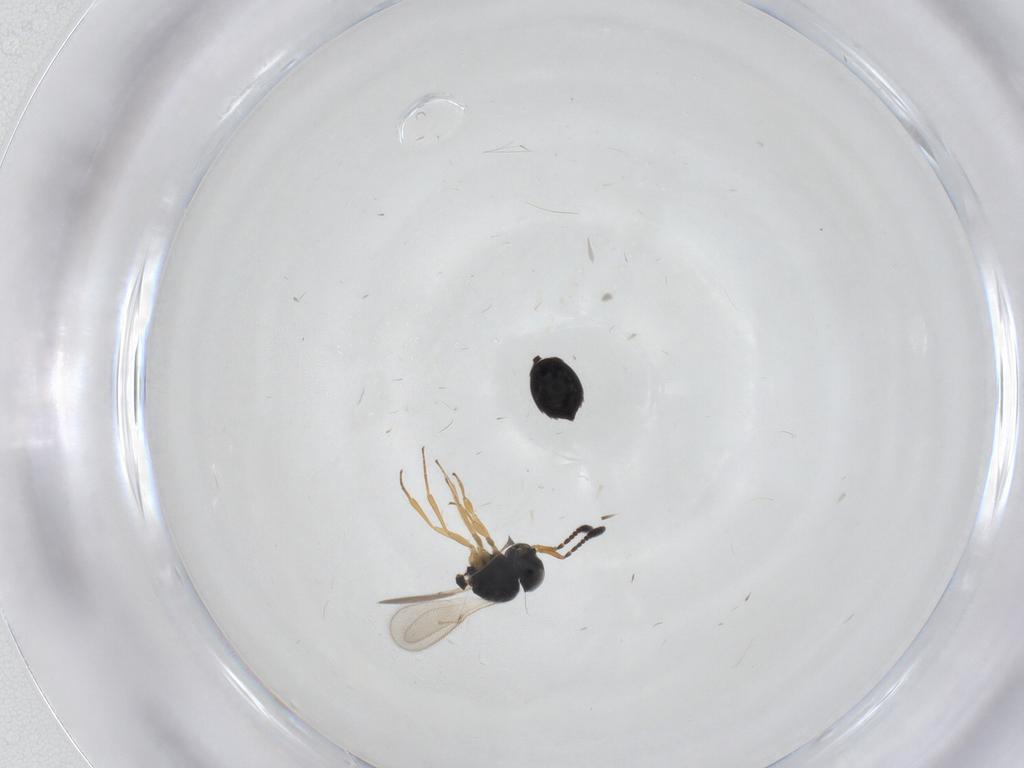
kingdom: Animalia
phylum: Arthropoda
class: Insecta
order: Hymenoptera
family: Scelionidae
